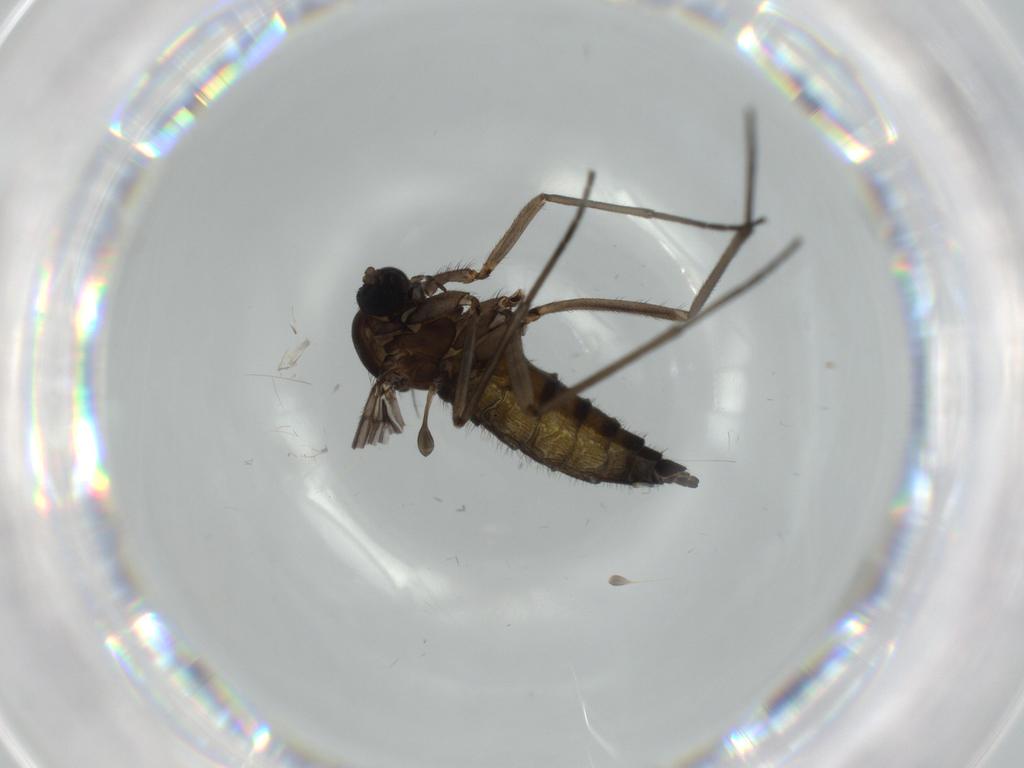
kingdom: Animalia
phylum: Arthropoda
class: Insecta
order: Diptera
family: Sciaridae
